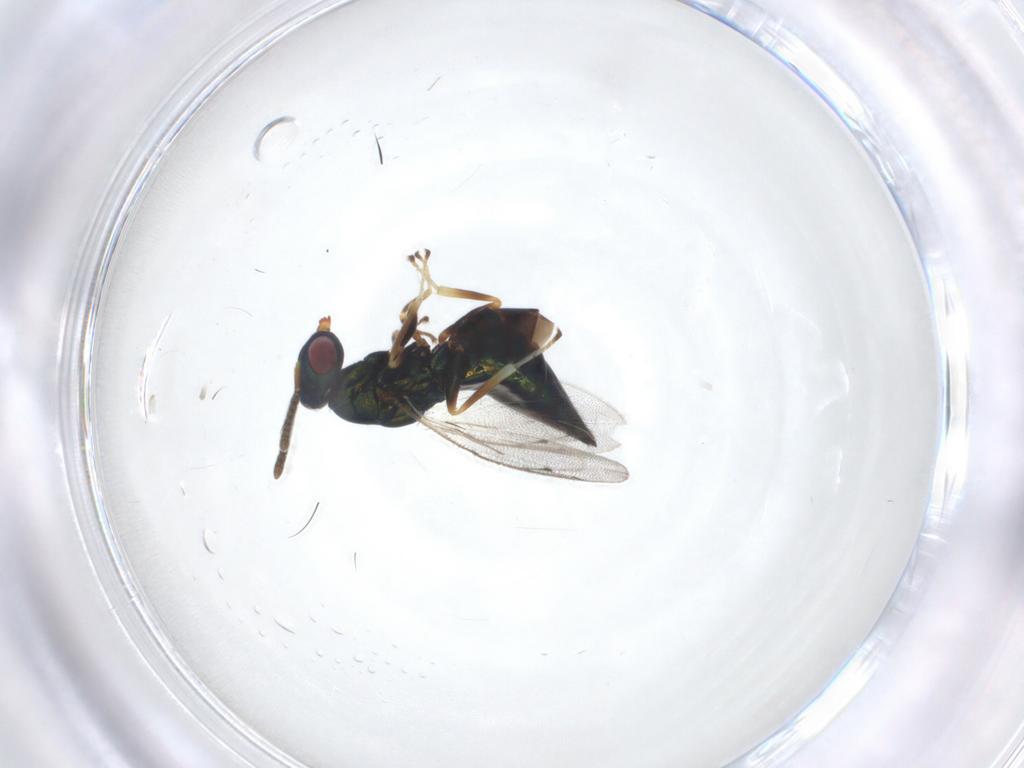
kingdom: Animalia
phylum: Arthropoda
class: Insecta
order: Hymenoptera
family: Pteromalidae
